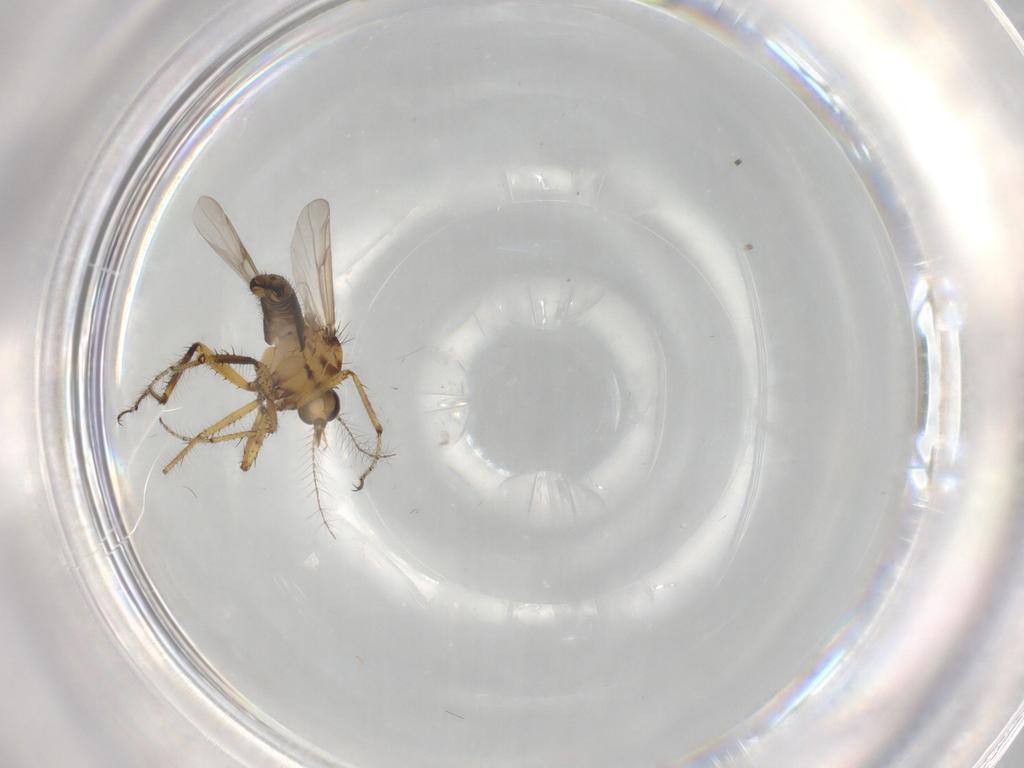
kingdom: Animalia
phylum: Arthropoda
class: Insecta
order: Diptera
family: Ceratopogonidae
